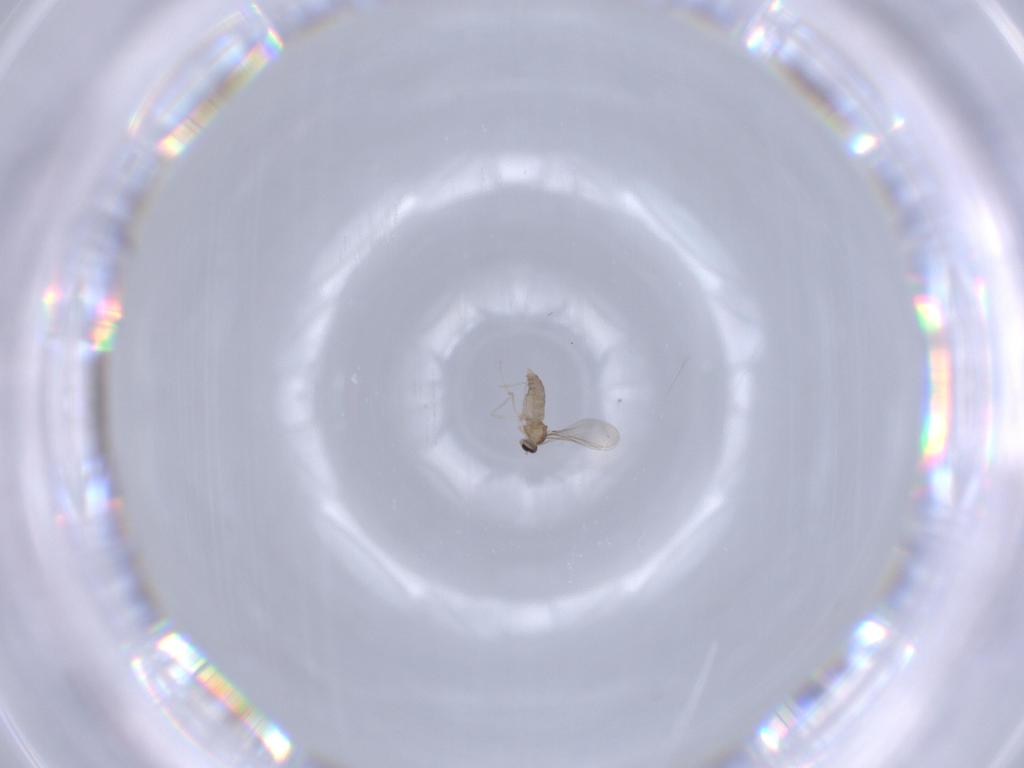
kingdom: Animalia
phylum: Arthropoda
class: Insecta
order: Diptera
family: Cecidomyiidae
